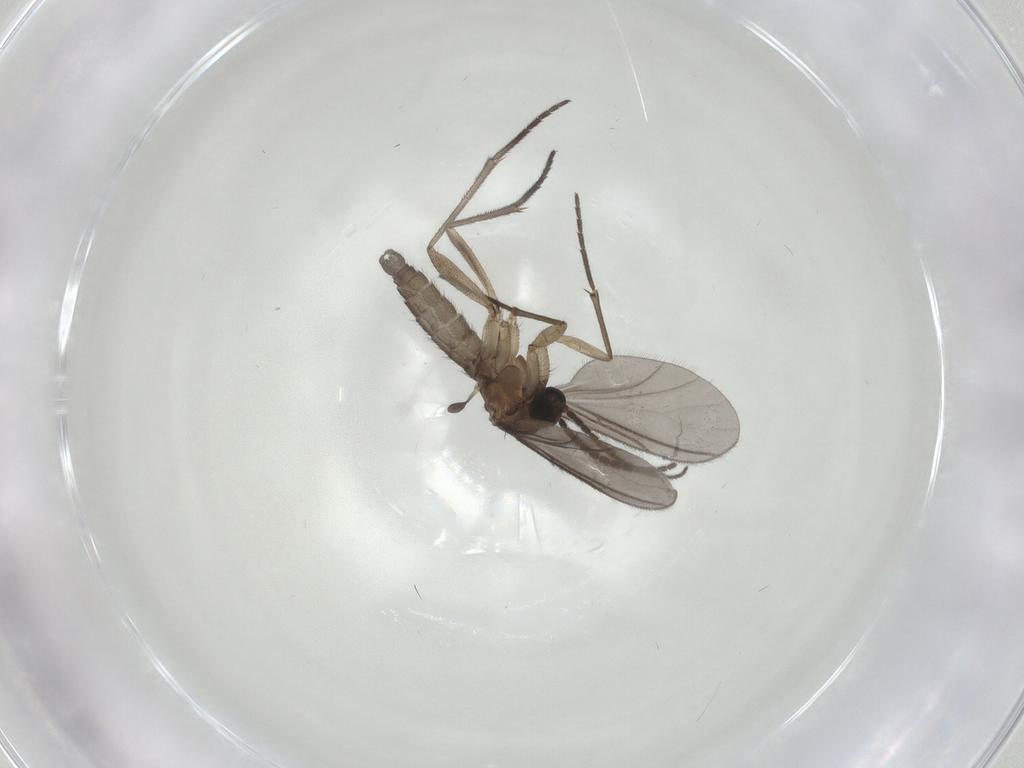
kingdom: Animalia
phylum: Arthropoda
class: Insecta
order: Diptera
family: Sciaridae
